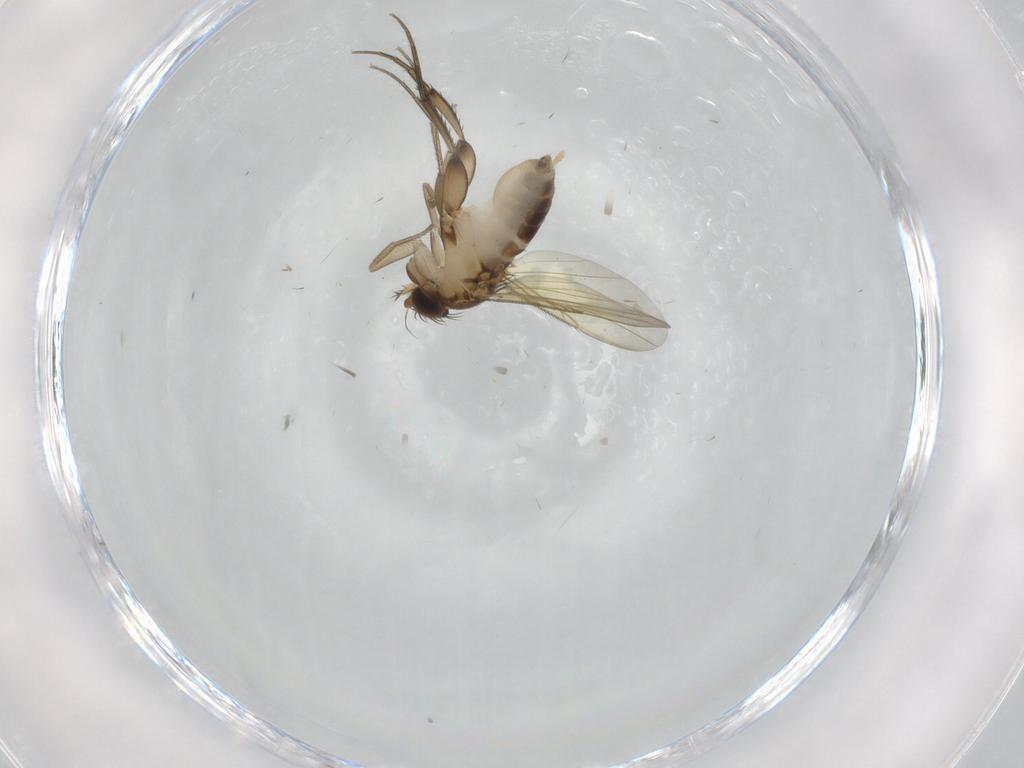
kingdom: Animalia
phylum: Arthropoda
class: Insecta
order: Diptera
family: Phoridae
